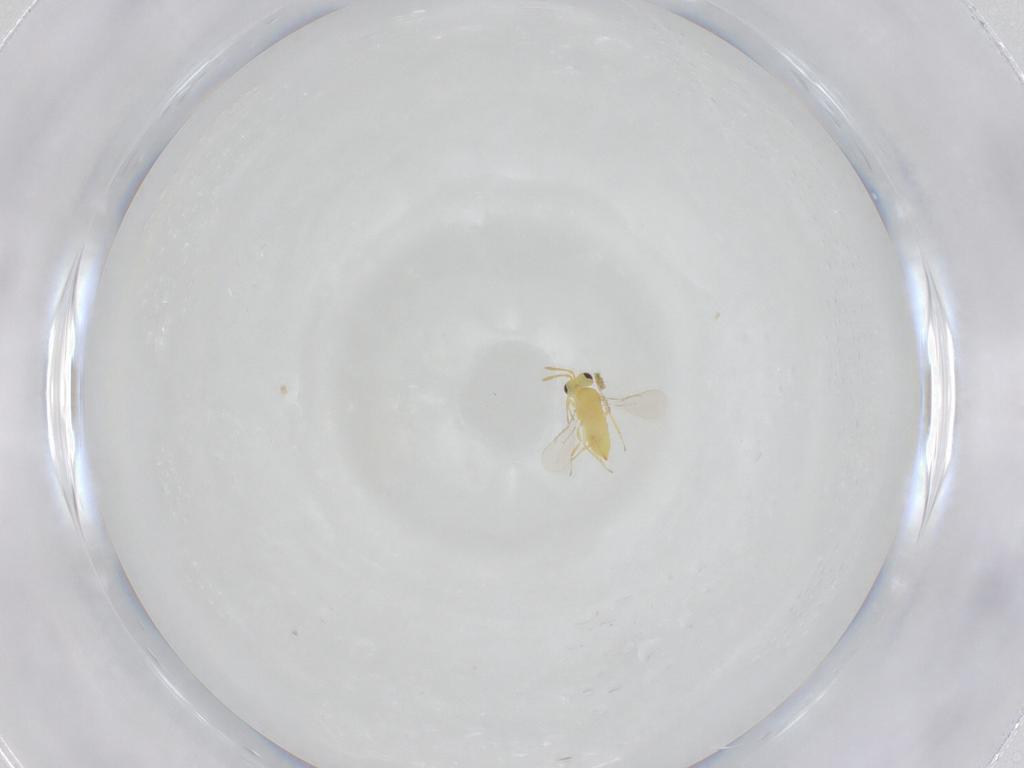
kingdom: Animalia
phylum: Arthropoda
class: Insecta
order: Hymenoptera
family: Aphelinidae
